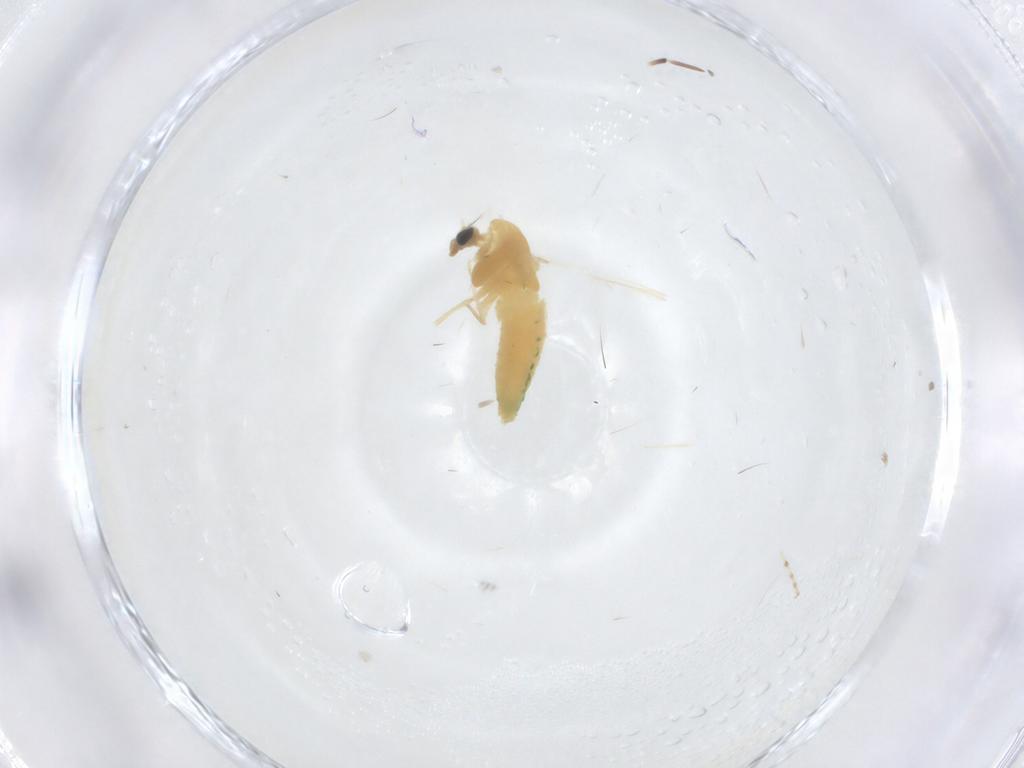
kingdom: Animalia
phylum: Arthropoda
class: Insecta
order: Diptera
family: Chironomidae
